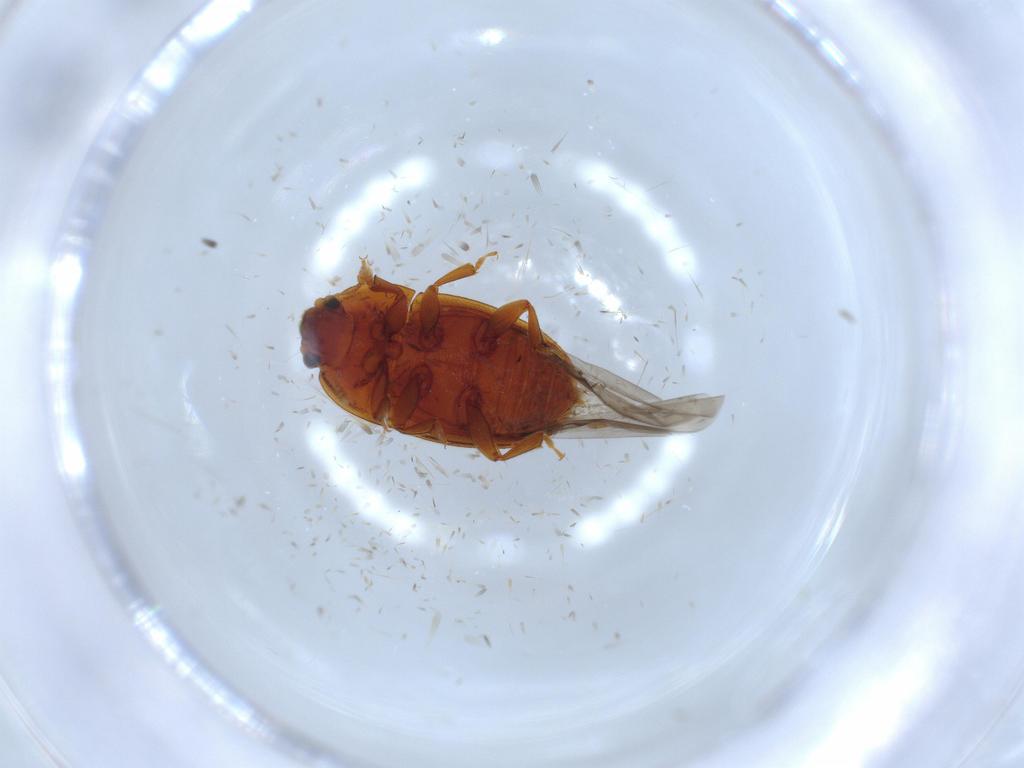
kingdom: Animalia
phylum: Arthropoda
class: Insecta
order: Coleoptera
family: Nitidulidae
